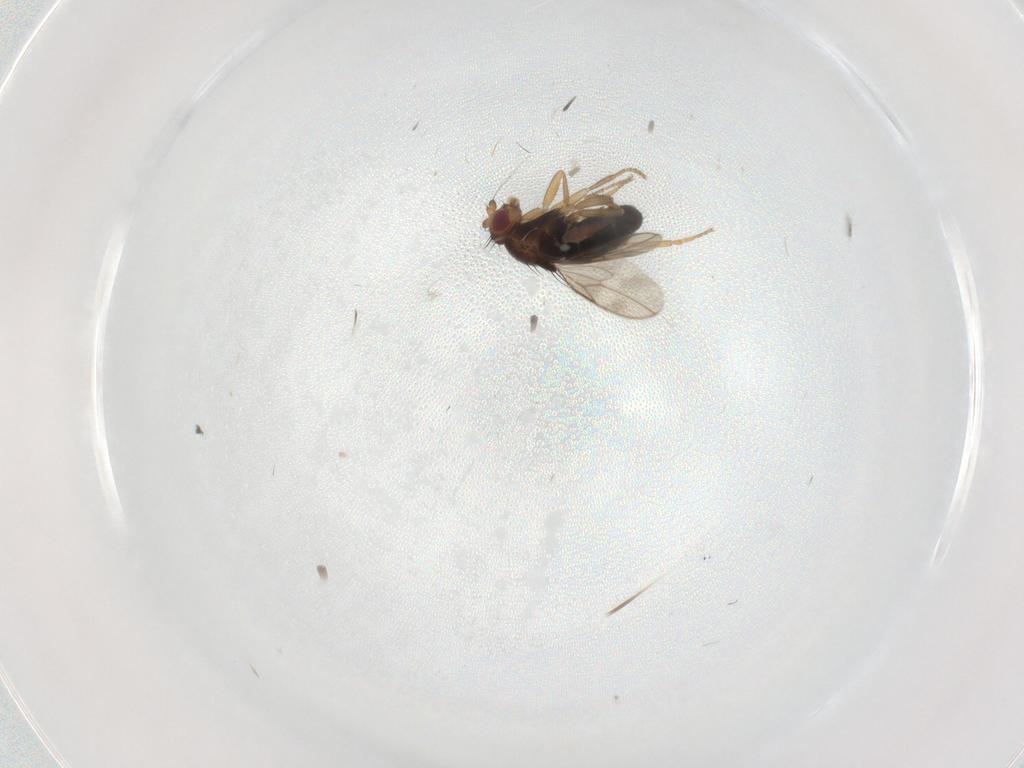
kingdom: Animalia
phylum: Arthropoda
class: Insecta
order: Diptera
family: Sphaeroceridae
